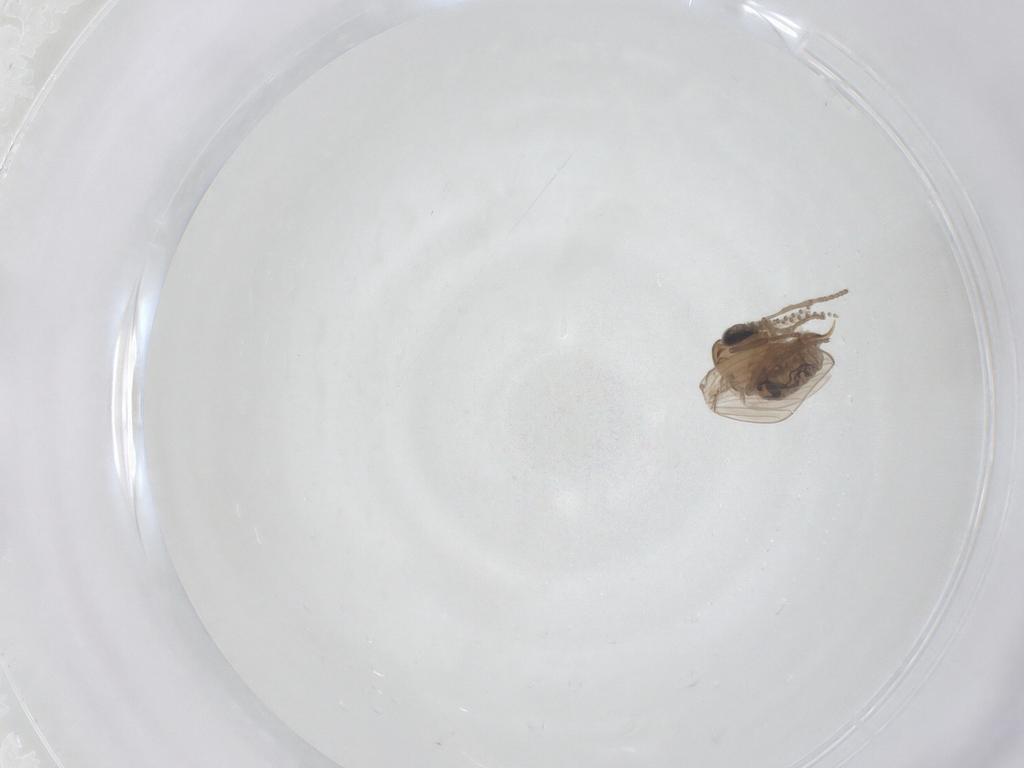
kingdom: Animalia
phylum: Arthropoda
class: Insecta
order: Diptera
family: Psychodidae
